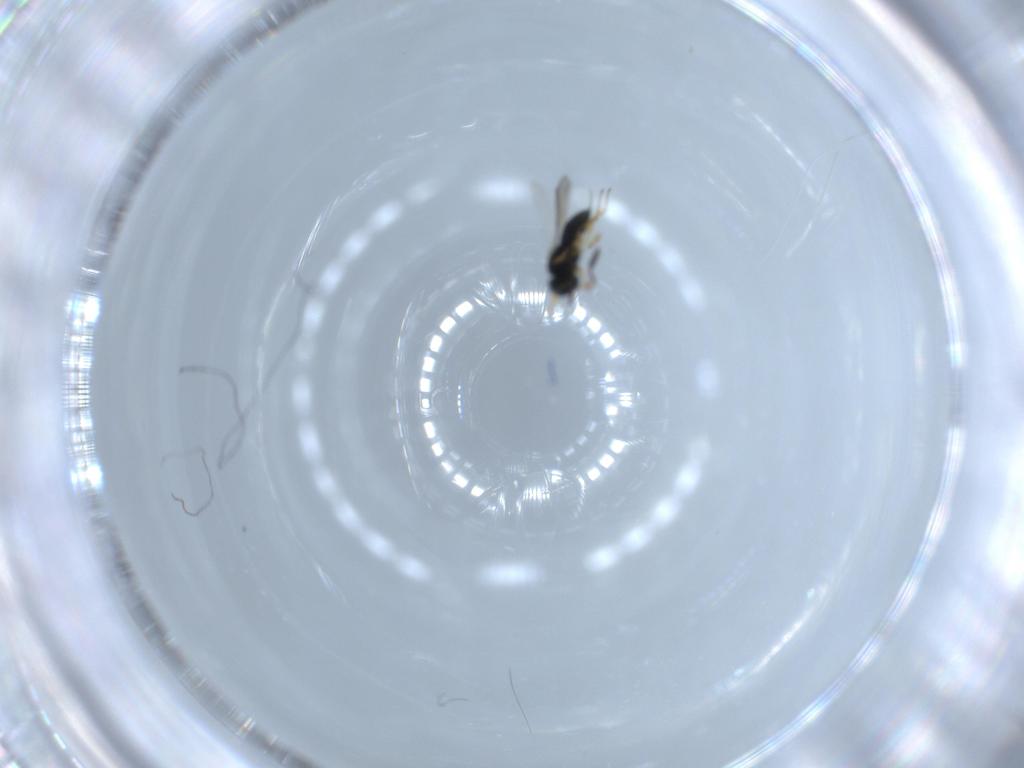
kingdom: Animalia
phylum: Arthropoda
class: Insecta
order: Hymenoptera
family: Scelionidae
